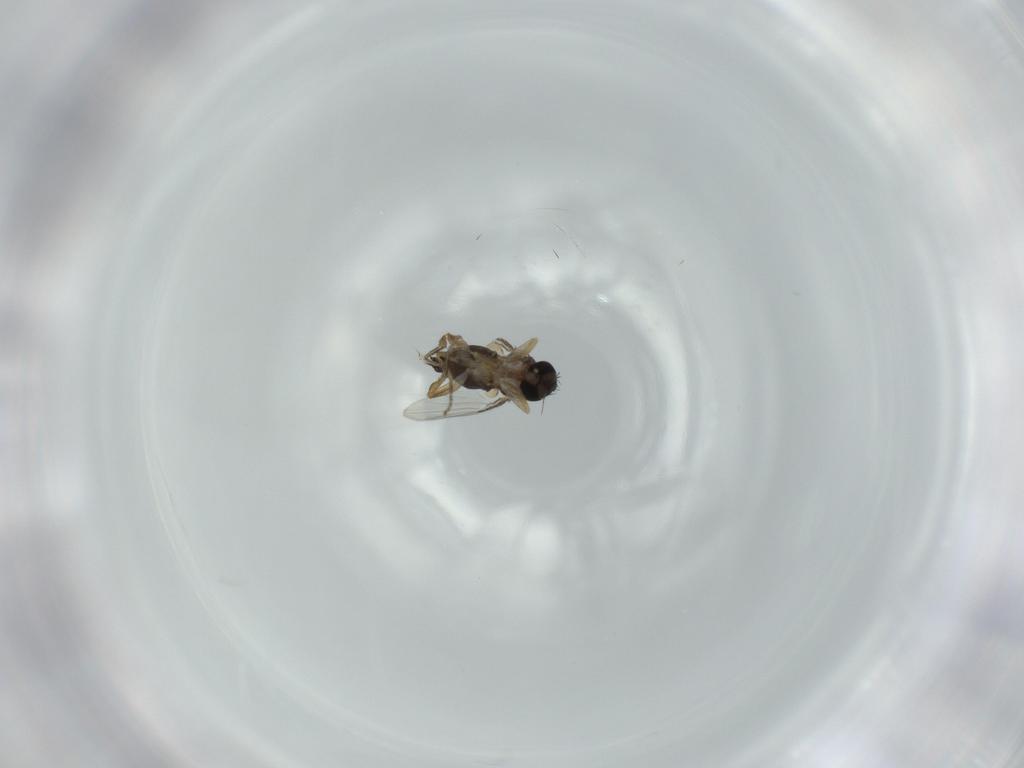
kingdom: Animalia
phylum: Arthropoda
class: Insecta
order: Diptera
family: Phoridae
